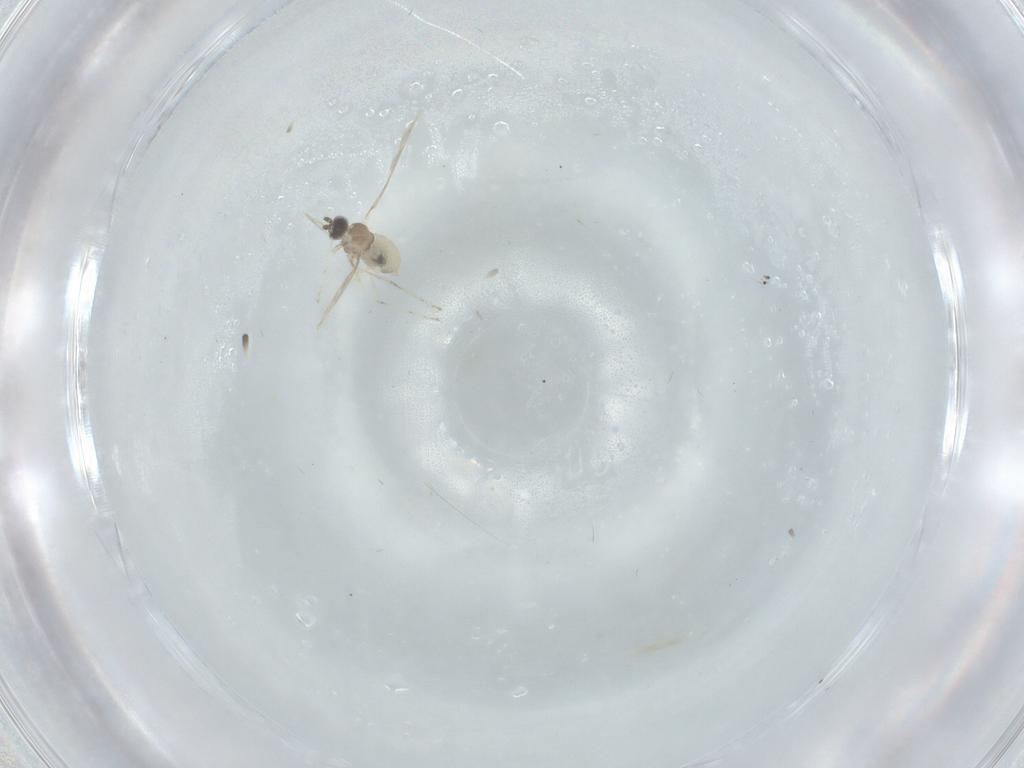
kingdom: Animalia
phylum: Arthropoda
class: Insecta
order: Diptera
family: Cecidomyiidae
